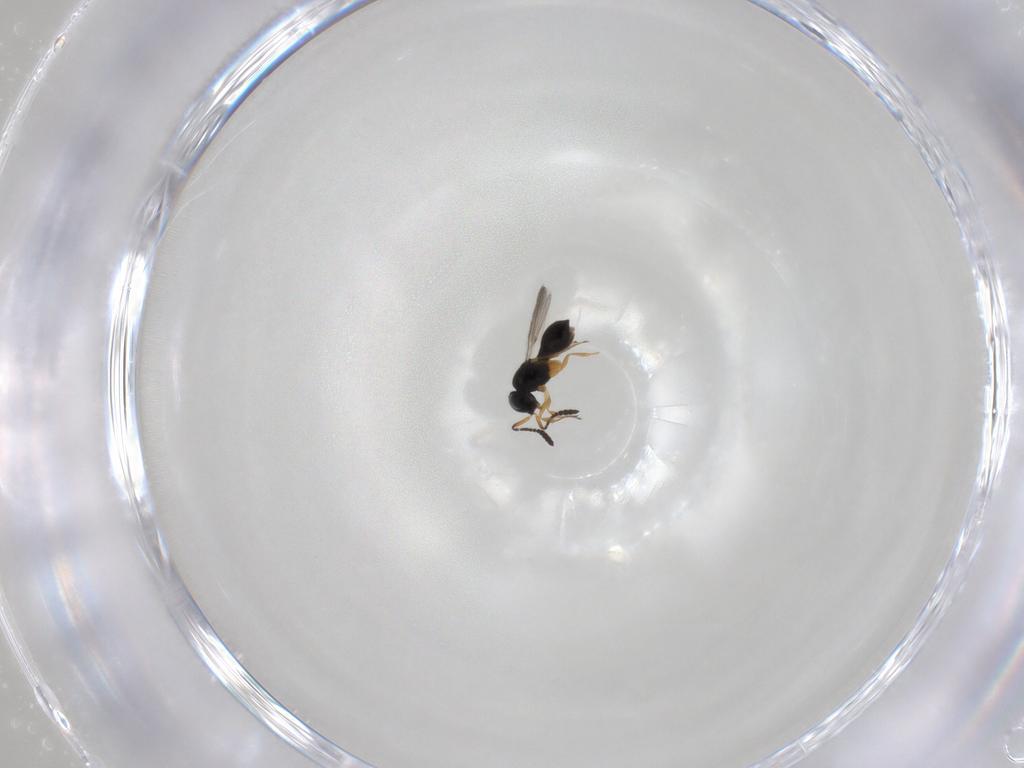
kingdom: Animalia
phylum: Arthropoda
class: Insecta
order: Hymenoptera
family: Scelionidae
